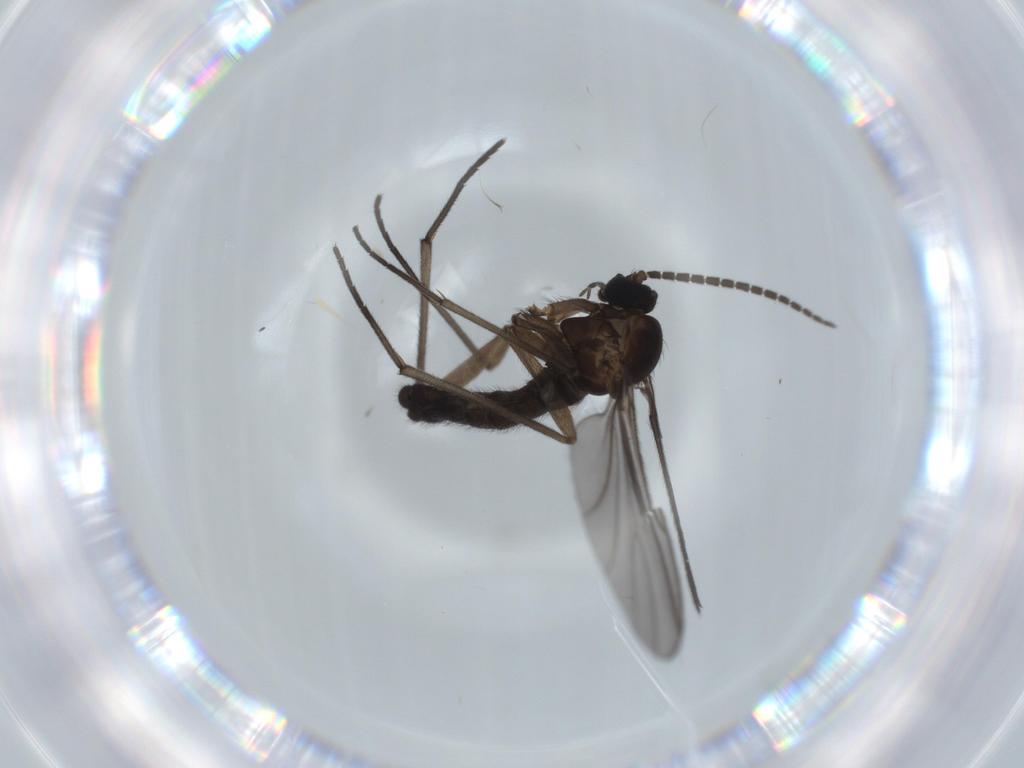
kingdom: Animalia
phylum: Arthropoda
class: Insecta
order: Diptera
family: Sciaridae
